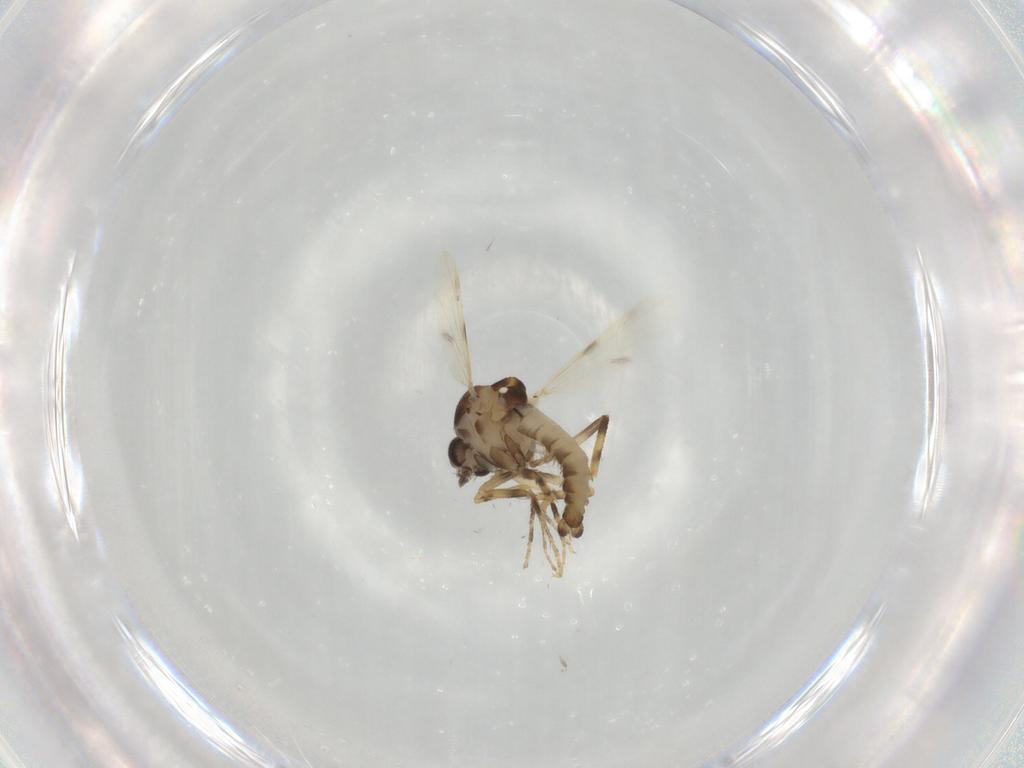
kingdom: Animalia
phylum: Arthropoda
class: Insecta
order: Diptera
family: Ceratopogonidae
